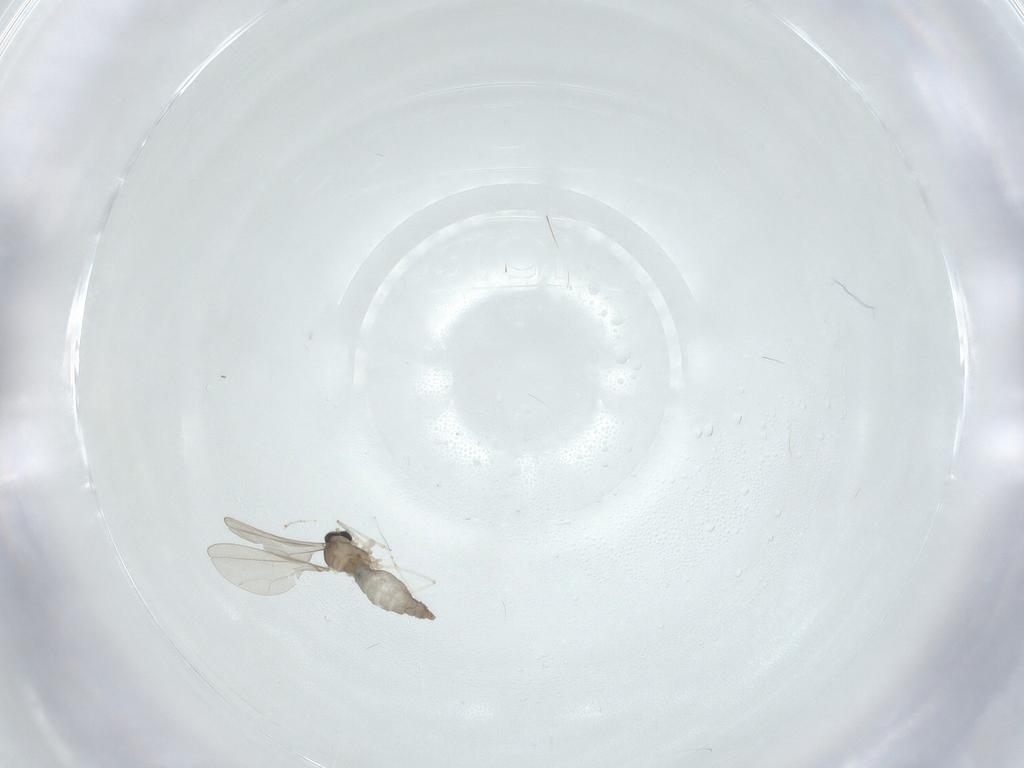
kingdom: Animalia
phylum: Arthropoda
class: Insecta
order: Diptera
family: Cecidomyiidae
